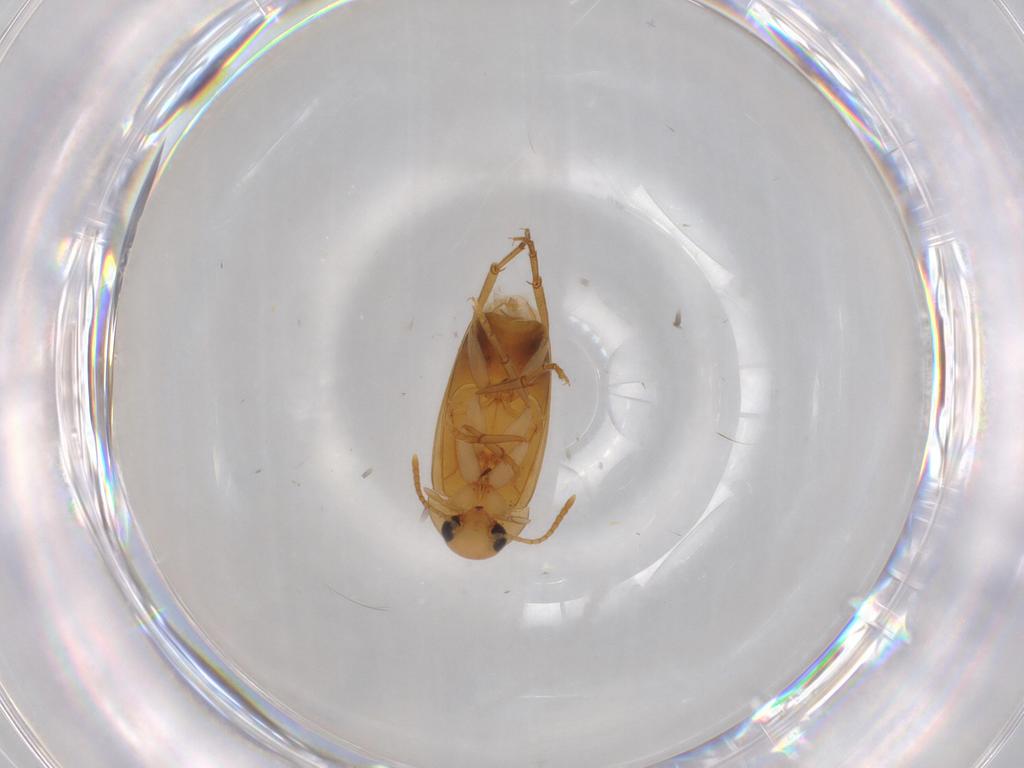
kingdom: Animalia
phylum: Arthropoda
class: Insecta
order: Coleoptera
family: Scraptiidae
